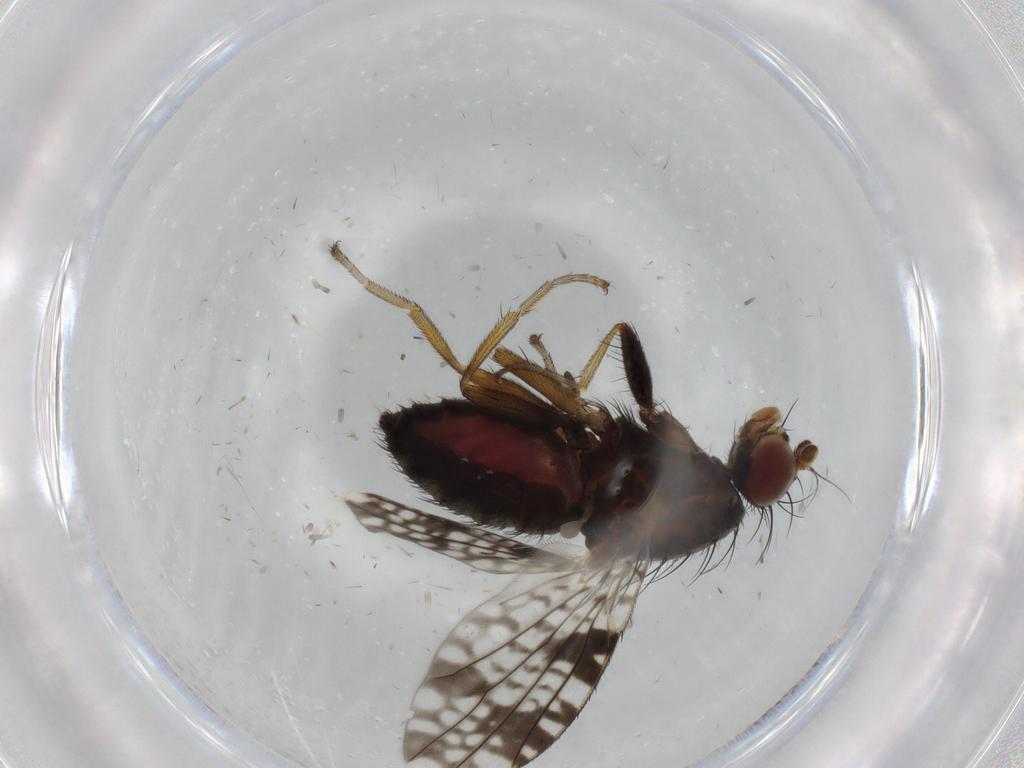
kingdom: Animalia
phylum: Arthropoda
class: Insecta
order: Diptera
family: Tephritidae
